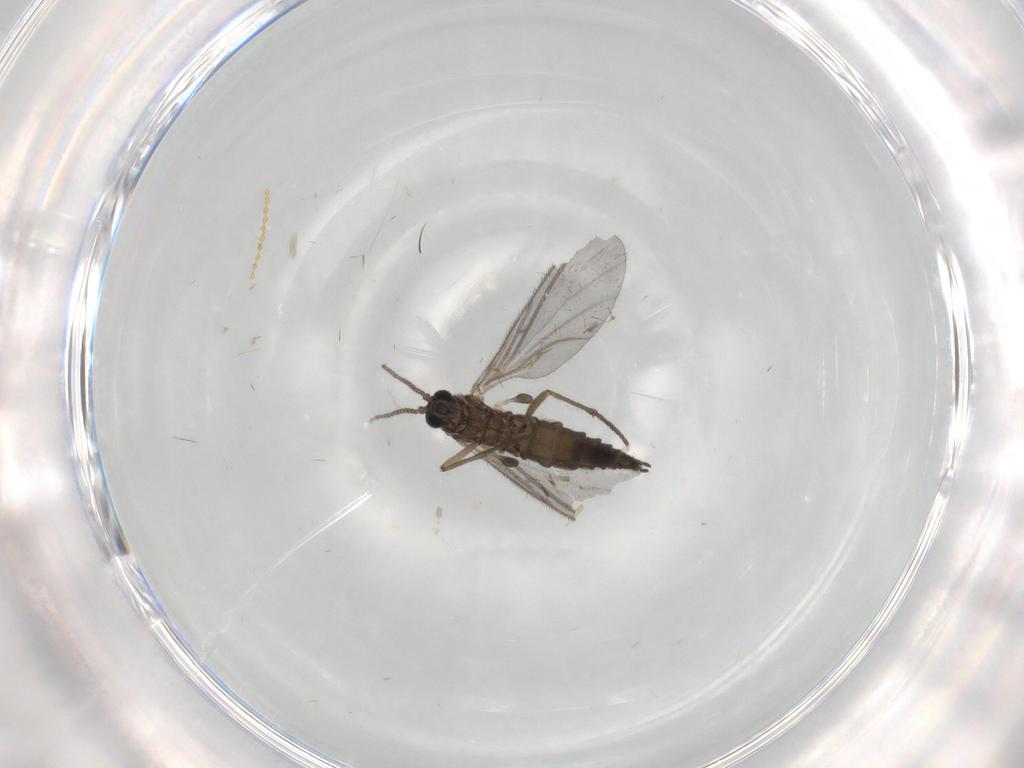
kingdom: Animalia
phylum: Arthropoda
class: Insecta
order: Diptera
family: Sciaridae
